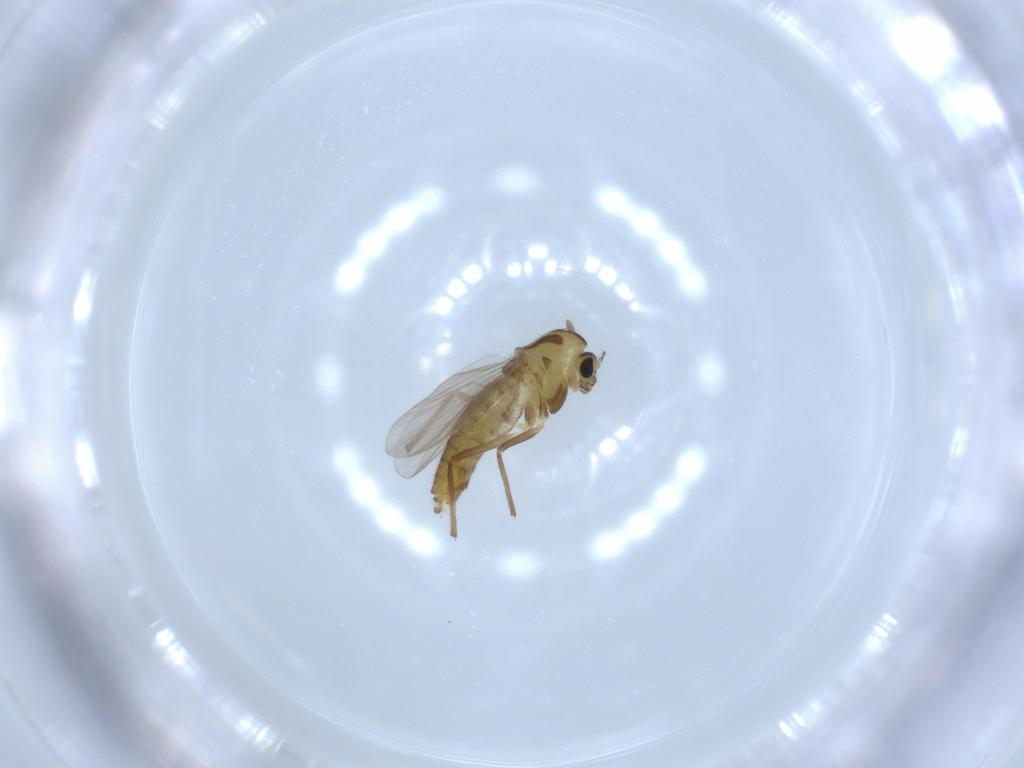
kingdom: Animalia
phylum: Arthropoda
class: Insecta
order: Diptera
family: Chironomidae
